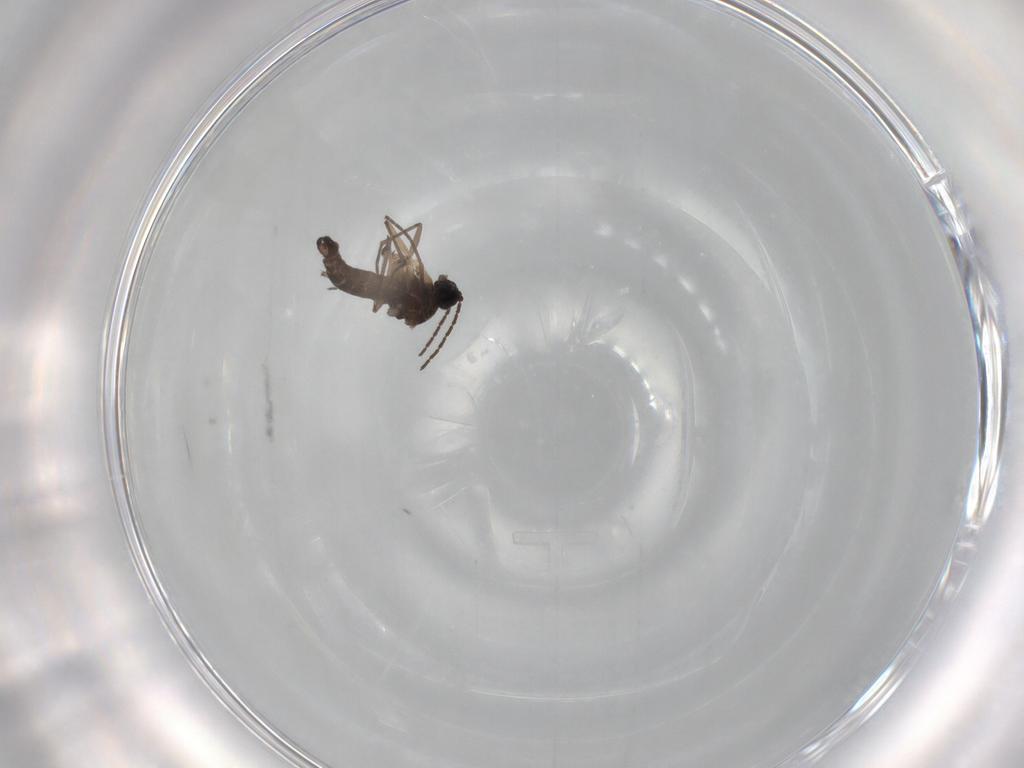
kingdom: Animalia
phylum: Arthropoda
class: Insecta
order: Diptera
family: Sciaridae
